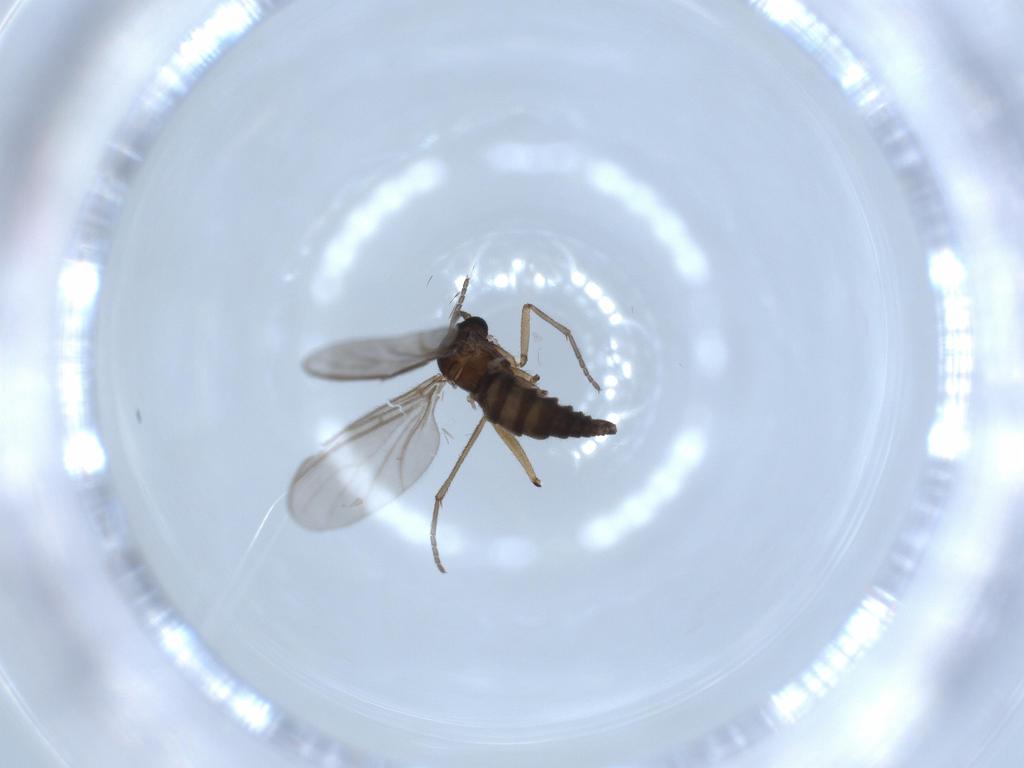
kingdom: Animalia
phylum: Arthropoda
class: Insecta
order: Diptera
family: Sciaridae
